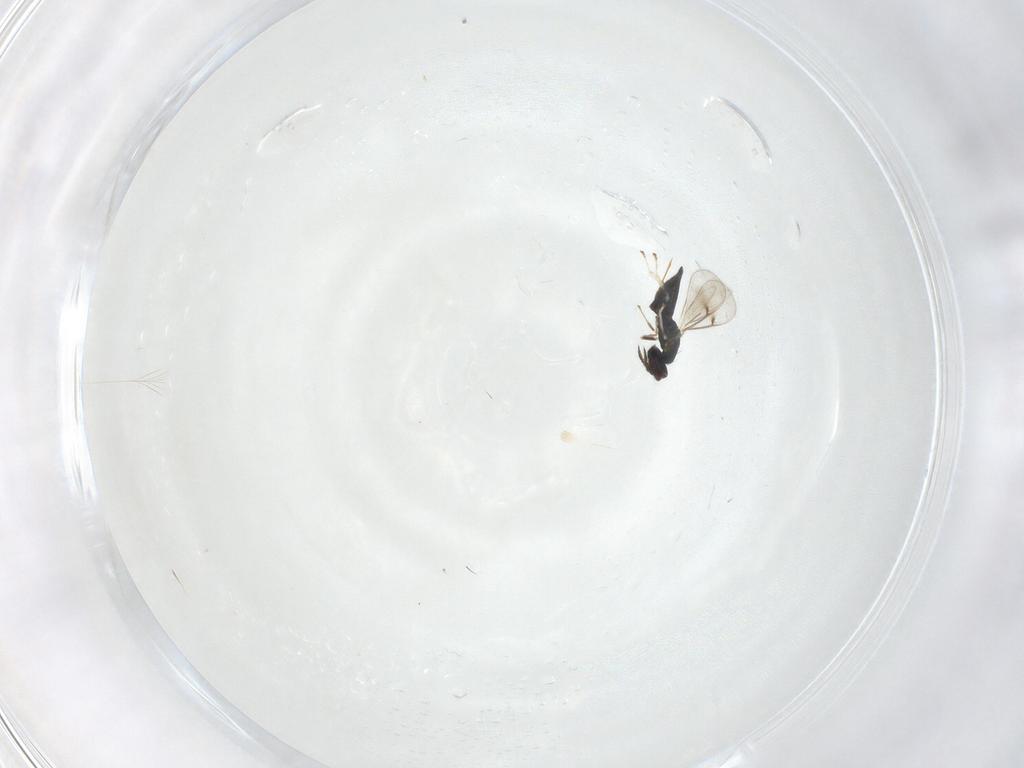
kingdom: Animalia
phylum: Arthropoda
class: Insecta
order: Hymenoptera
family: Eulophidae
